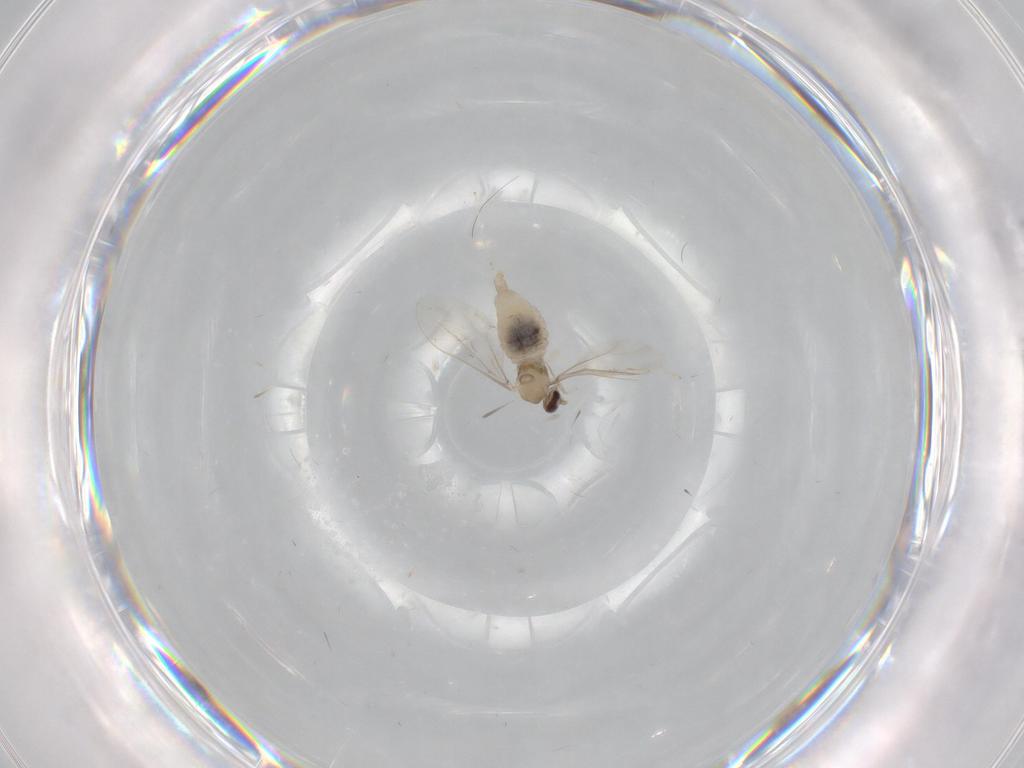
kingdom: Animalia
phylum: Arthropoda
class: Insecta
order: Diptera
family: Cecidomyiidae
